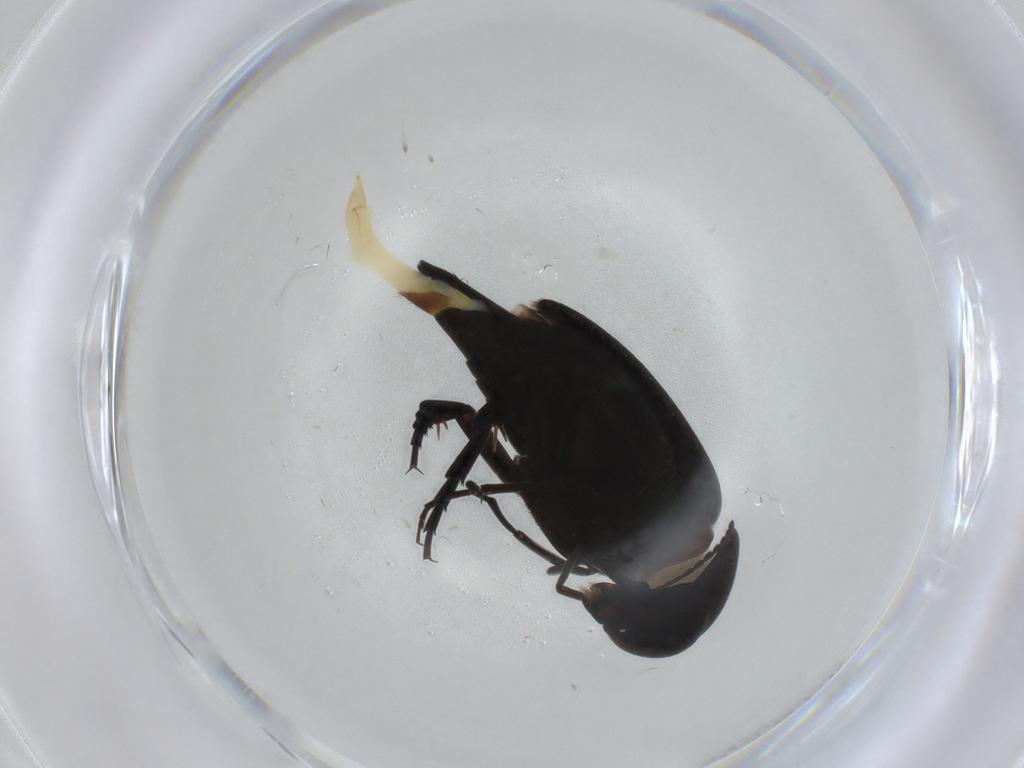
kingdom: Animalia
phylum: Arthropoda
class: Insecta
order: Coleoptera
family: Mordellidae
